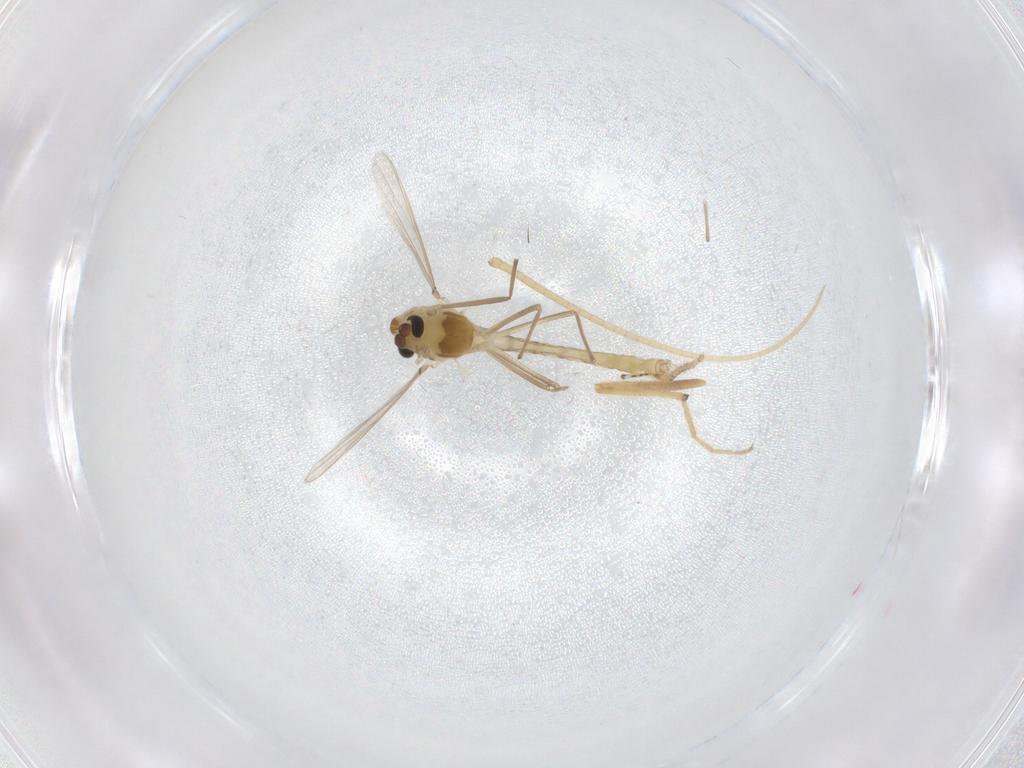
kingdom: Animalia
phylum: Arthropoda
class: Insecta
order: Diptera
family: Chironomidae
